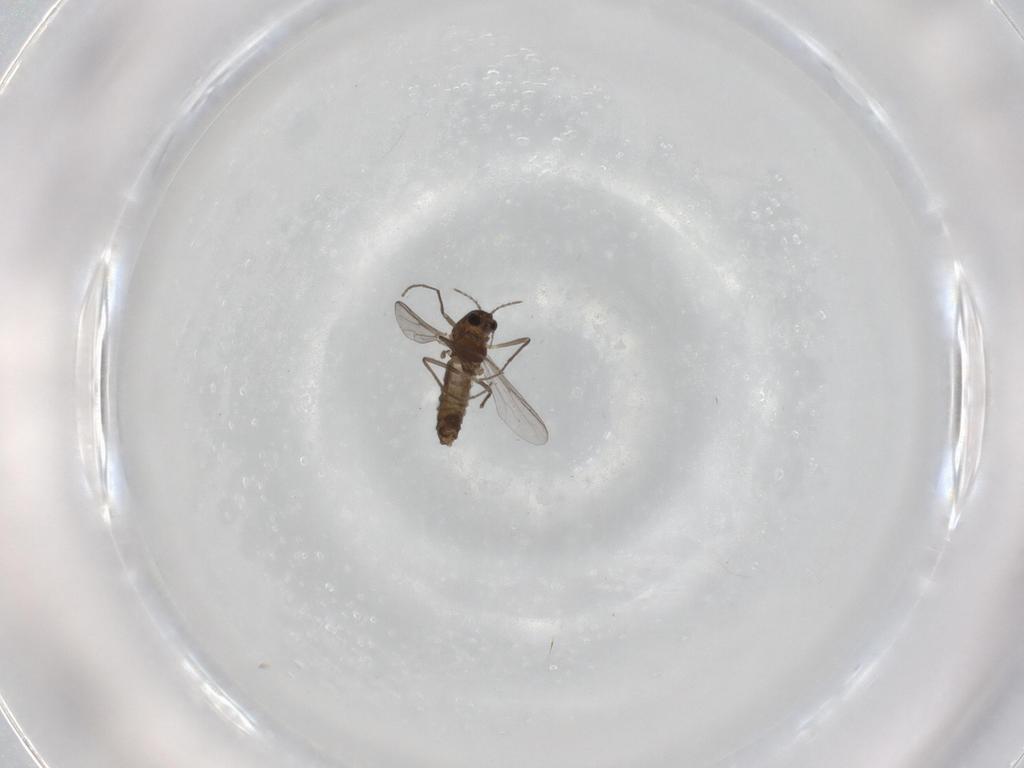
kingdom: Animalia
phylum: Arthropoda
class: Insecta
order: Diptera
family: Chironomidae
